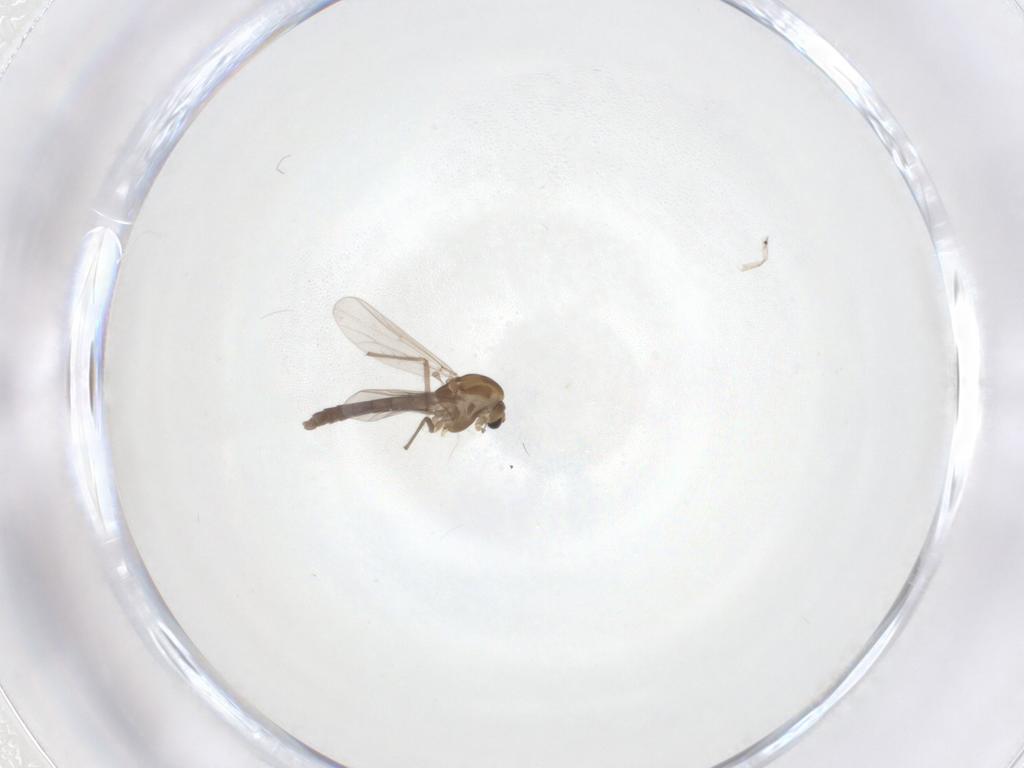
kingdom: Animalia
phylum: Arthropoda
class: Insecta
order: Diptera
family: Chironomidae
